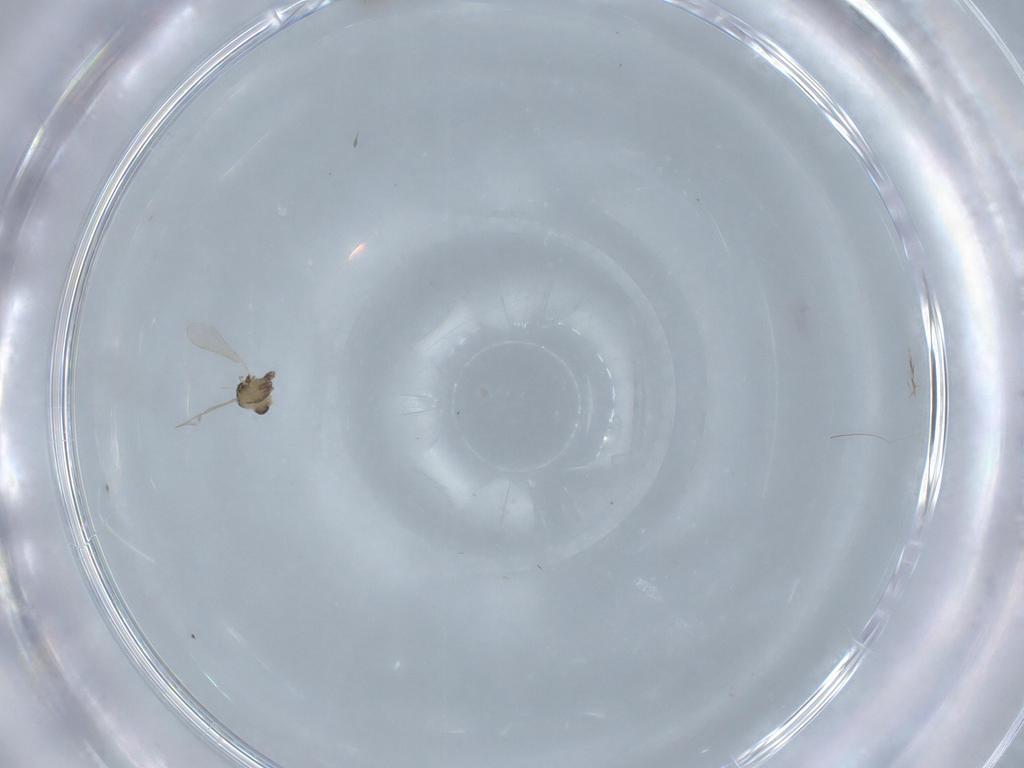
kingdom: Animalia
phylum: Arthropoda
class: Insecta
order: Diptera
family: Chironomidae
